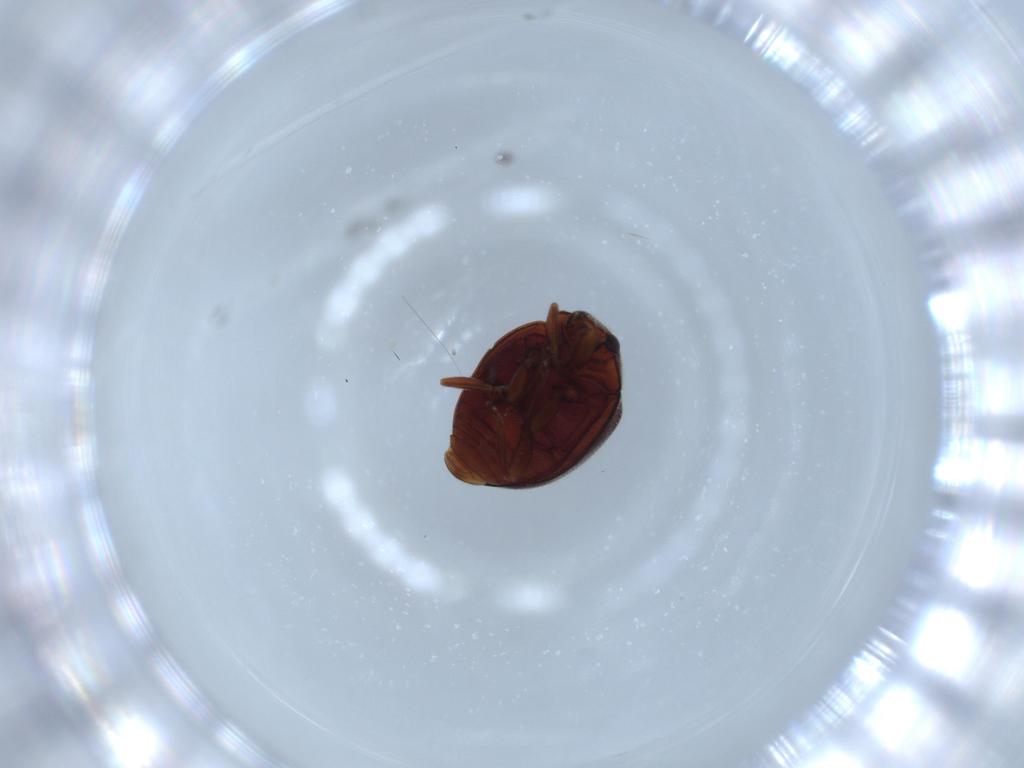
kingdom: Animalia
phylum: Arthropoda
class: Insecta
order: Coleoptera
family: Coccinellidae
